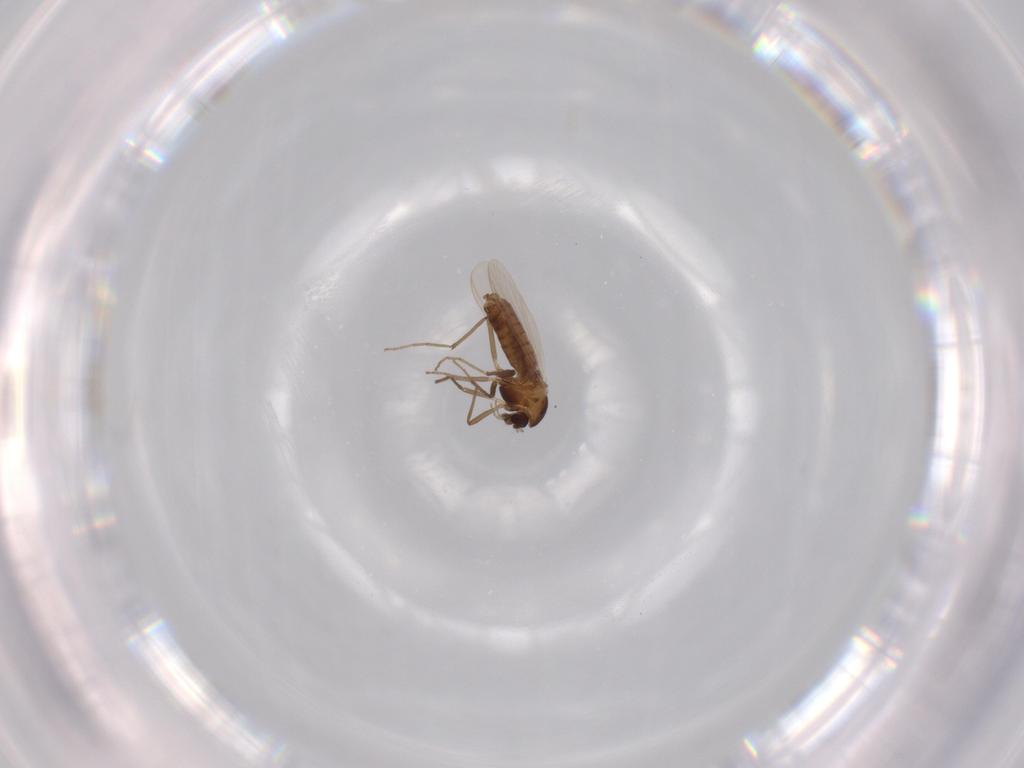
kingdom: Animalia
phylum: Arthropoda
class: Insecta
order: Diptera
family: Chironomidae
